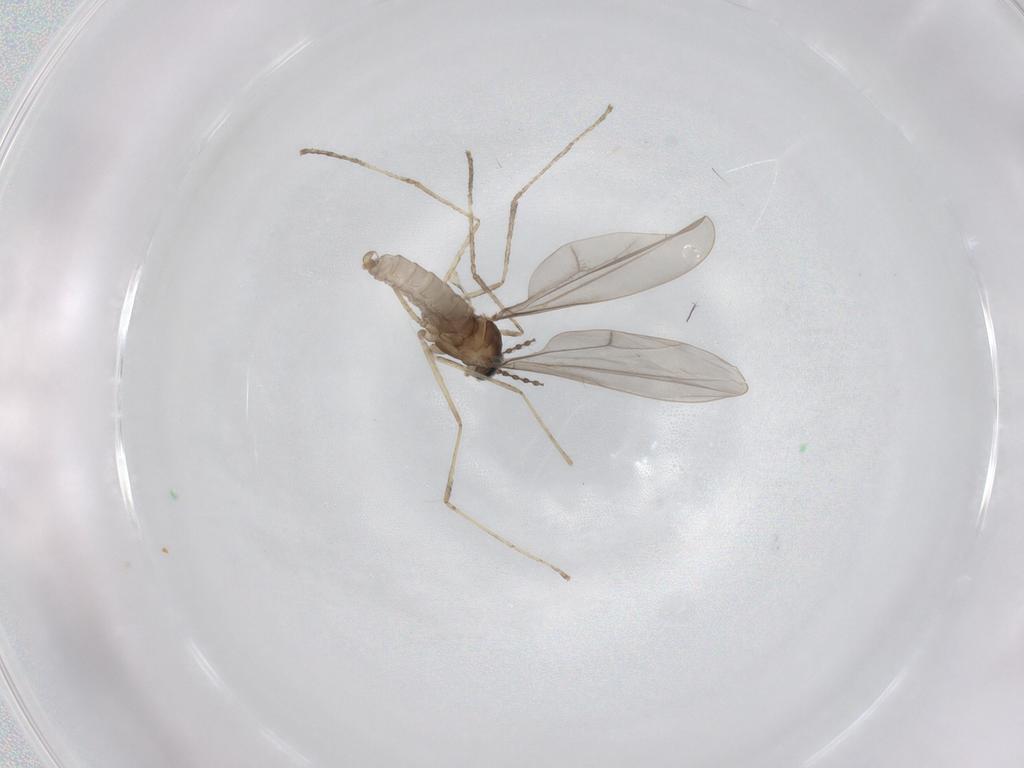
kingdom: Animalia
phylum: Arthropoda
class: Insecta
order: Diptera
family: Cecidomyiidae
